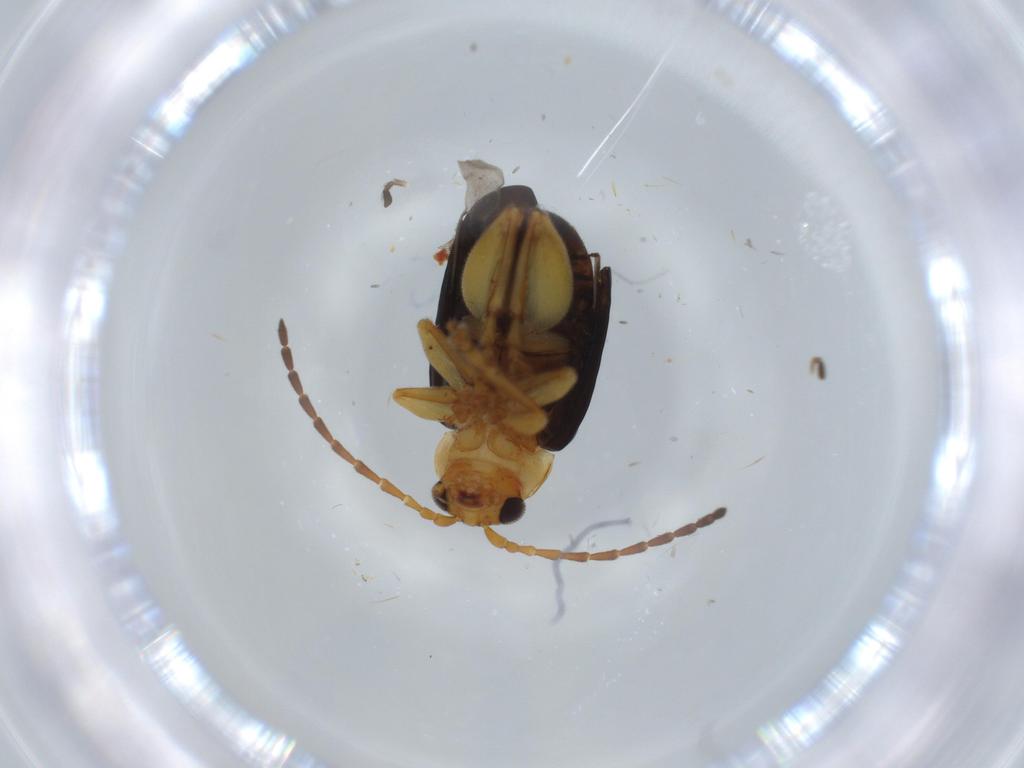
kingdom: Animalia
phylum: Arthropoda
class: Insecta
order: Coleoptera
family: Chrysomelidae
